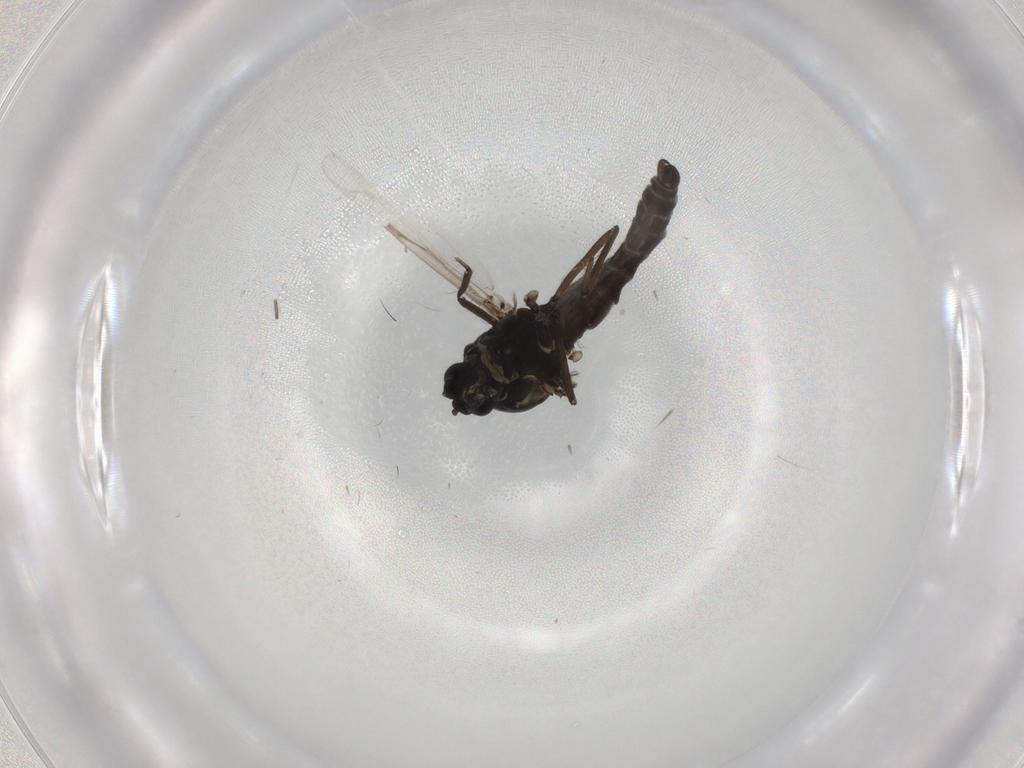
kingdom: Animalia
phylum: Arthropoda
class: Insecta
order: Diptera
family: Ceratopogonidae
